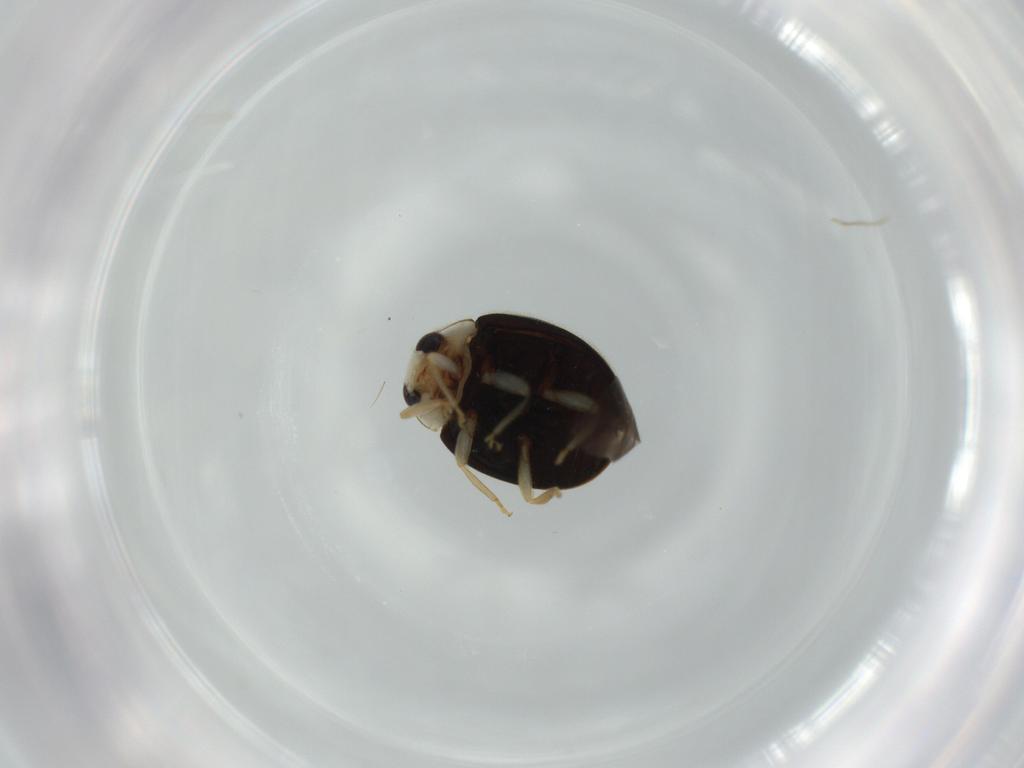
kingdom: Animalia
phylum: Arthropoda
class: Insecta
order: Coleoptera
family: Coccinellidae
